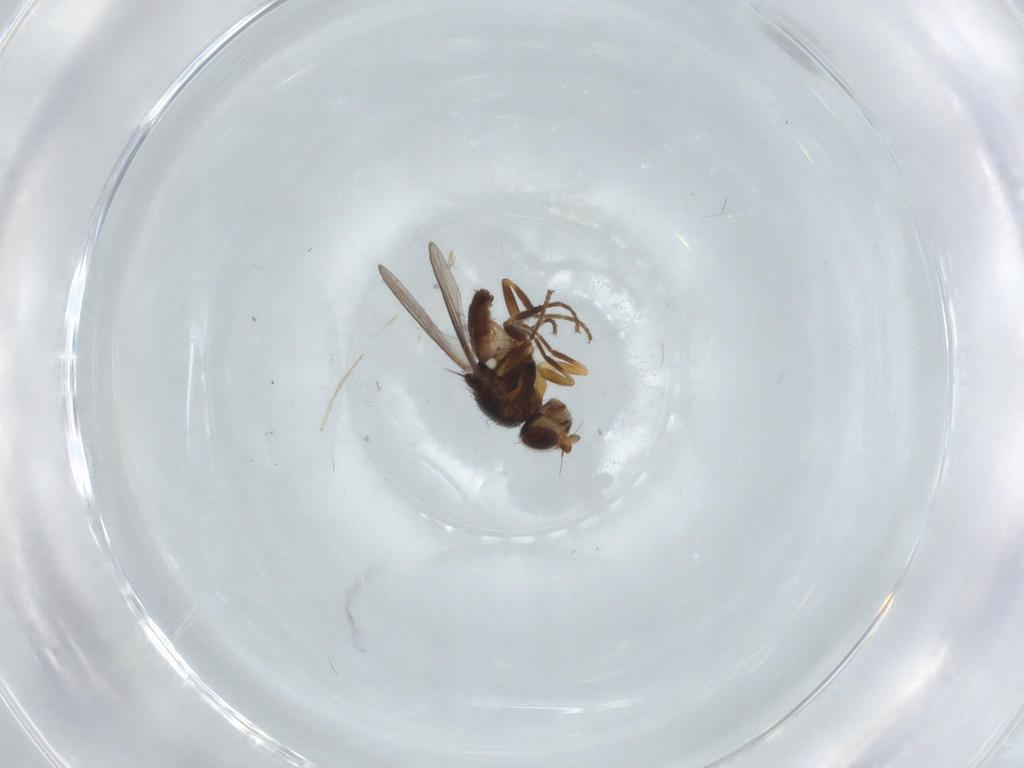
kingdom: Animalia
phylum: Arthropoda
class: Insecta
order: Diptera
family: Chloropidae
